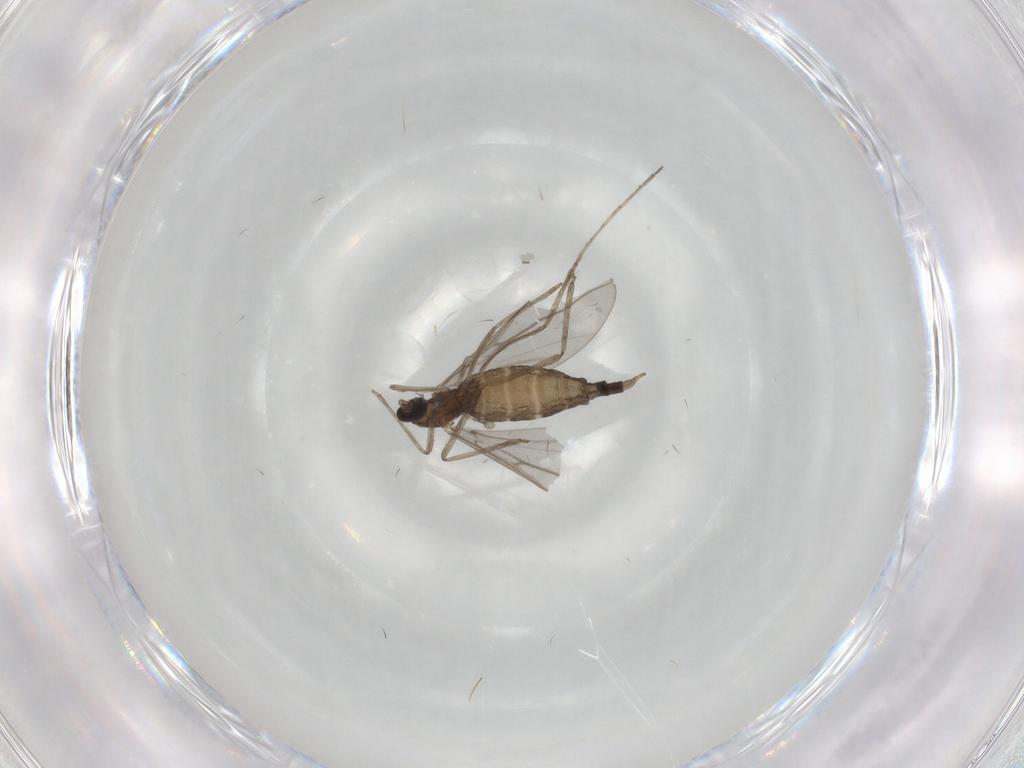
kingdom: Animalia
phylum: Arthropoda
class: Insecta
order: Diptera
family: Cecidomyiidae
